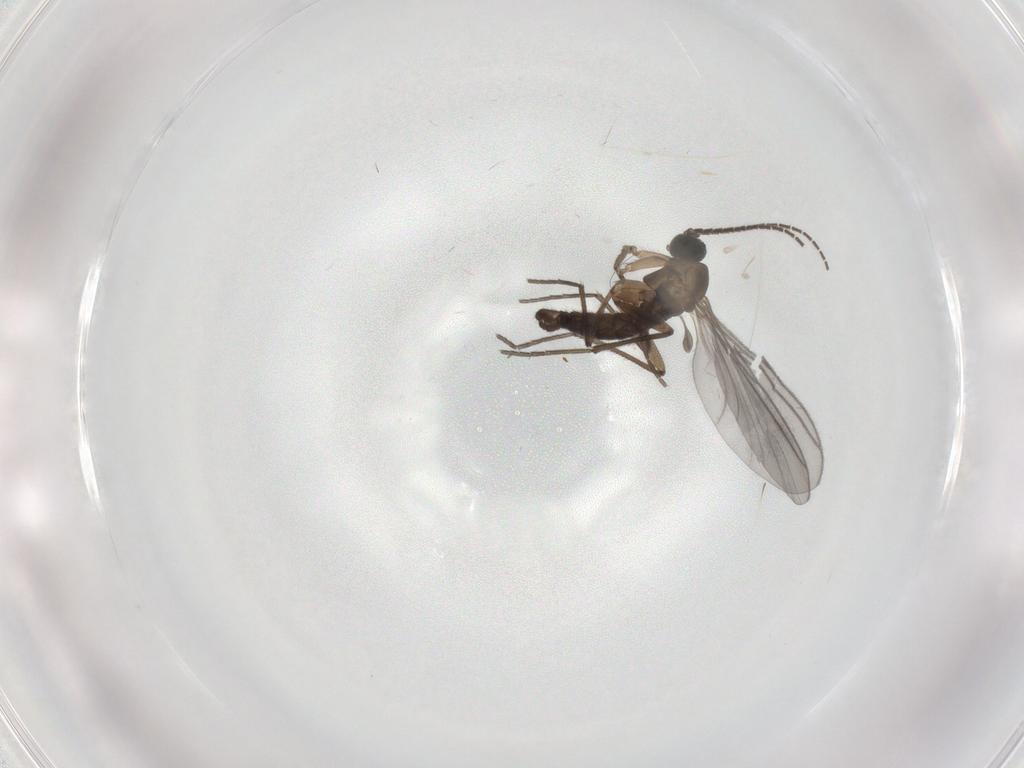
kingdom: Animalia
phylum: Arthropoda
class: Insecta
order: Diptera
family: Sciaridae
